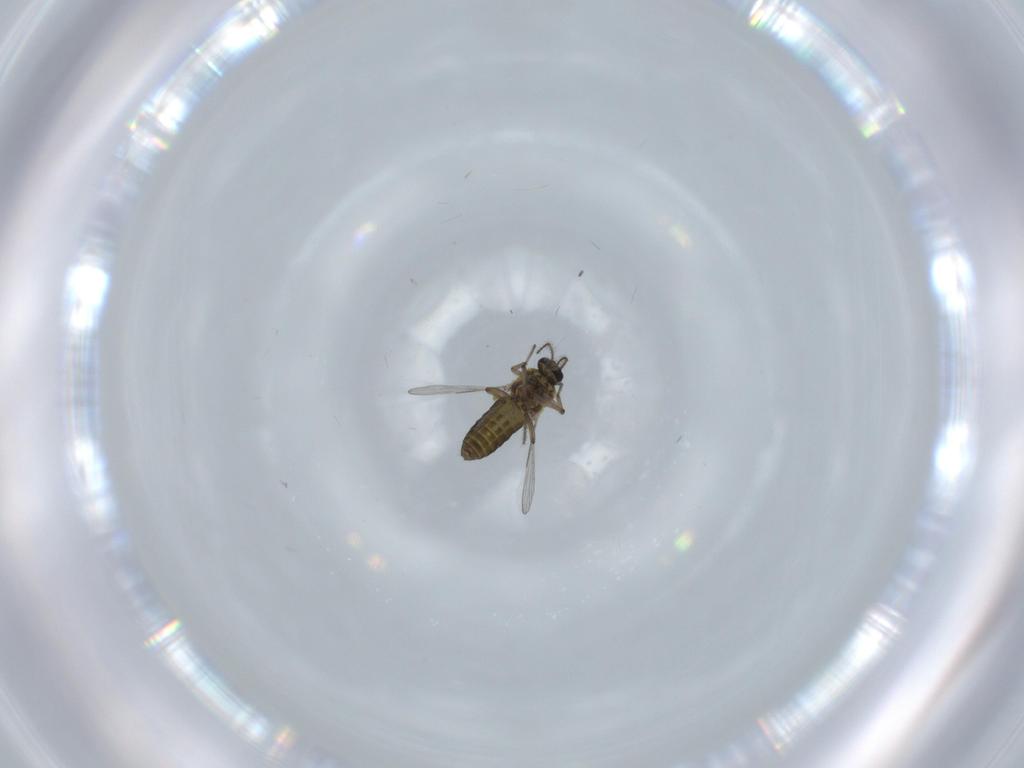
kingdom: Animalia
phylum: Arthropoda
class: Insecta
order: Diptera
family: Ceratopogonidae
